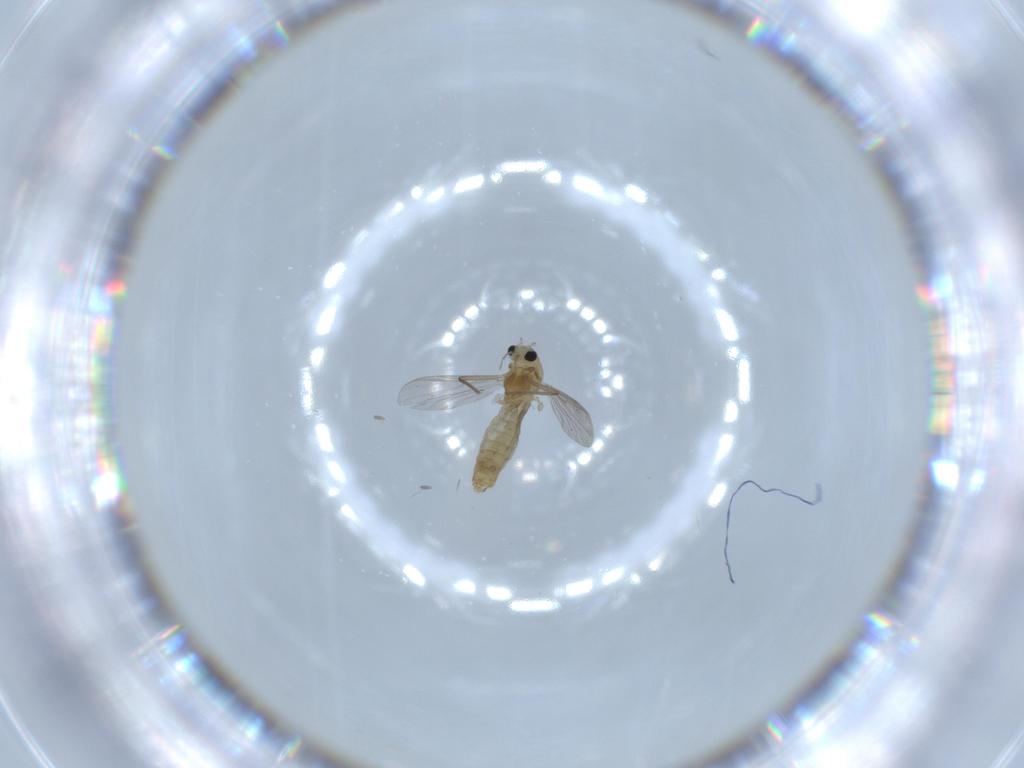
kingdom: Animalia
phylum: Arthropoda
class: Insecta
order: Diptera
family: Chironomidae
